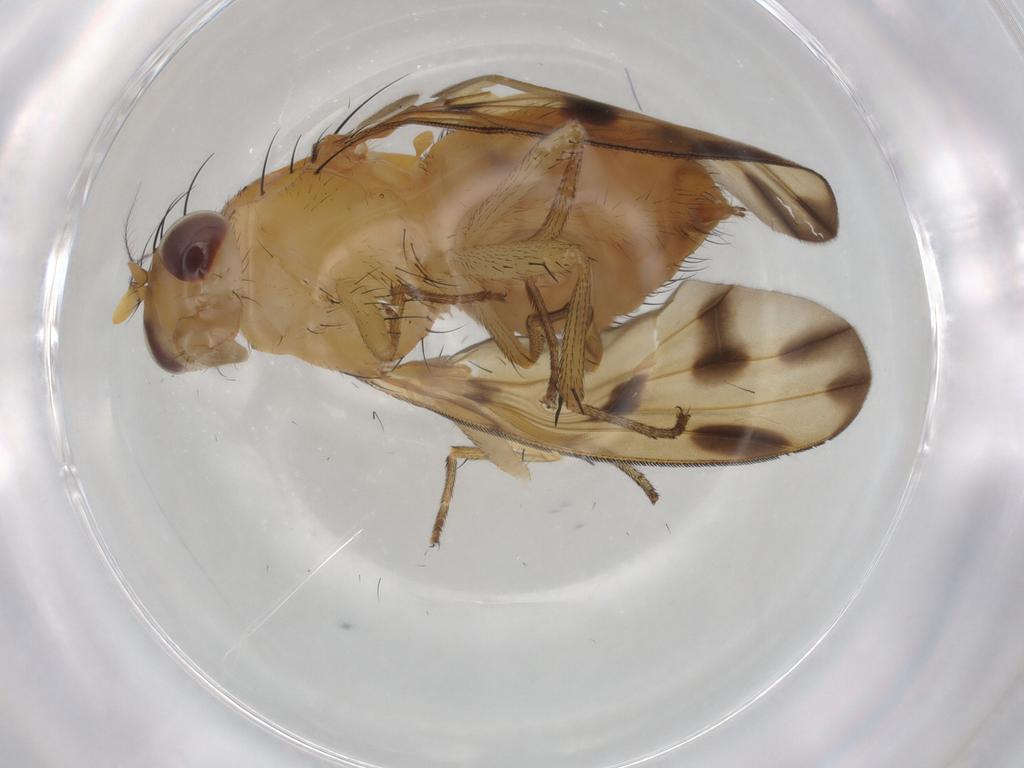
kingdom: Animalia
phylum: Arthropoda
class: Insecta
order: Diptera
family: Lauxaniidae
